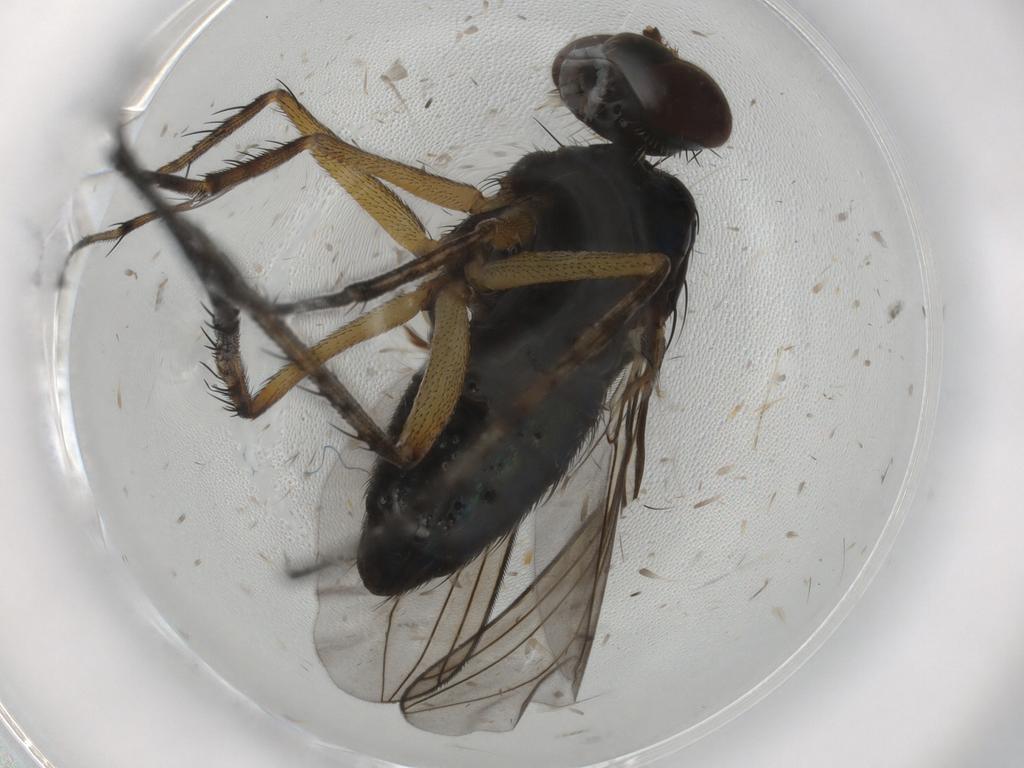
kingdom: Animalia
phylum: Arthropoda
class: Insecta
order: Diptera
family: Dolichopodidae
